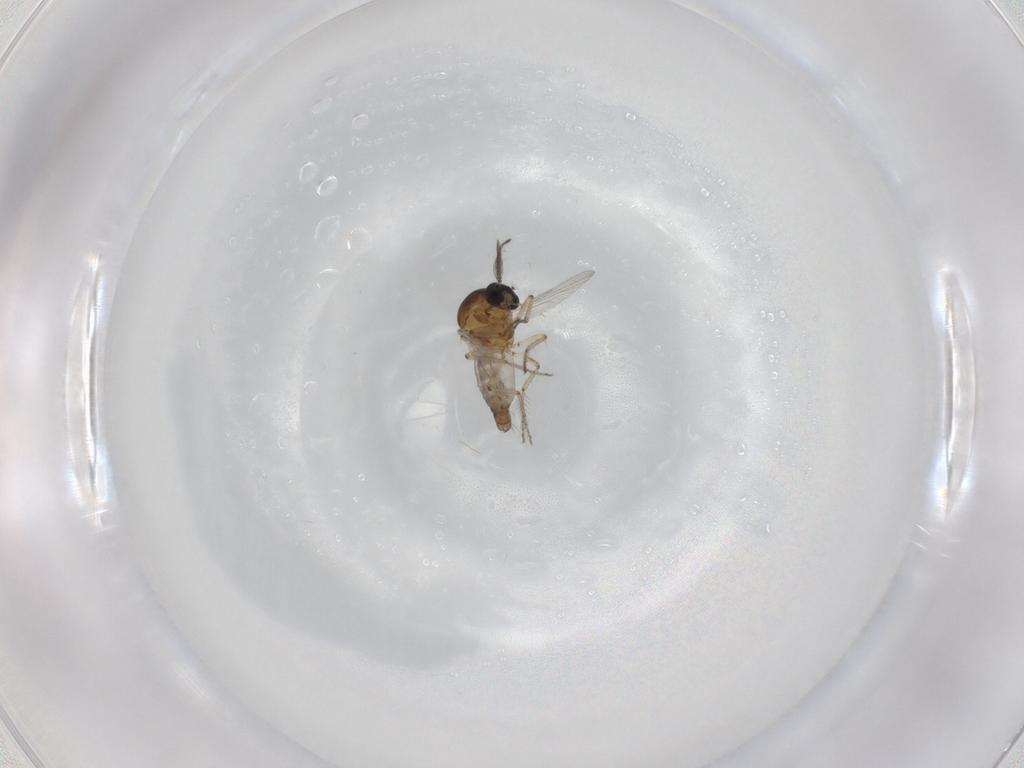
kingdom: Animalia
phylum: Arthropoda
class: Insecta
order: Diptera
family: Ceratopogonidae
